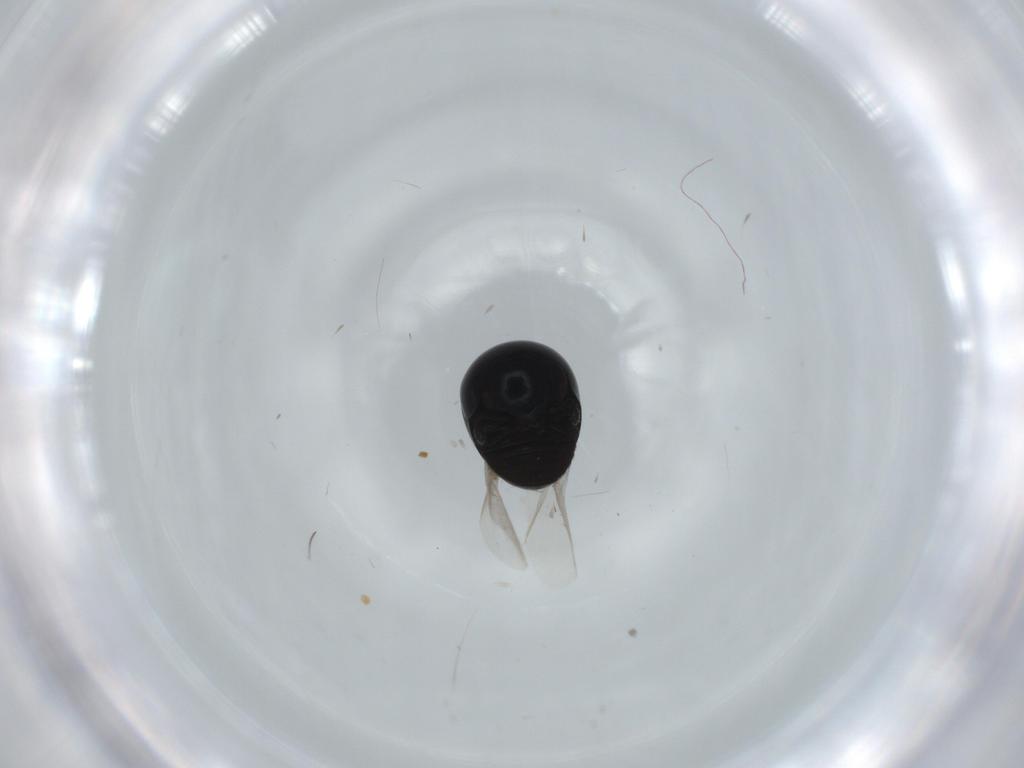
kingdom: Animalia
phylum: Arthropoda
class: Insecta
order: Coleoptera
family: Cybocephalidae
